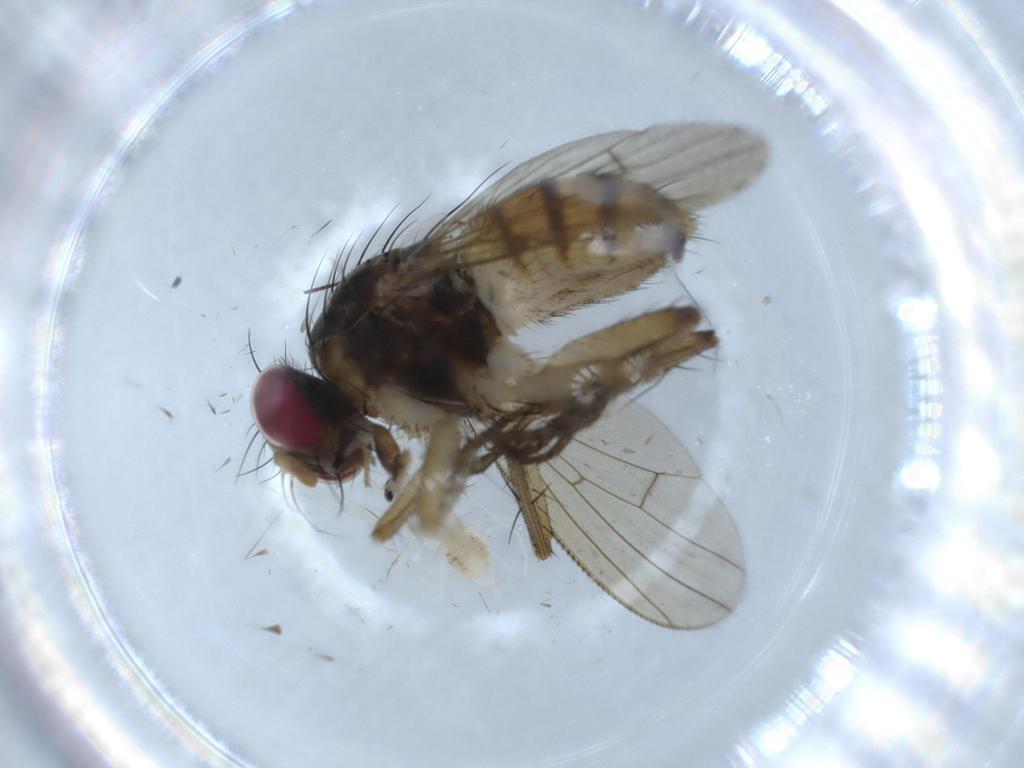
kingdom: Animalia
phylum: Arthropoda
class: Insecta
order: Diptera
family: Muscidae
